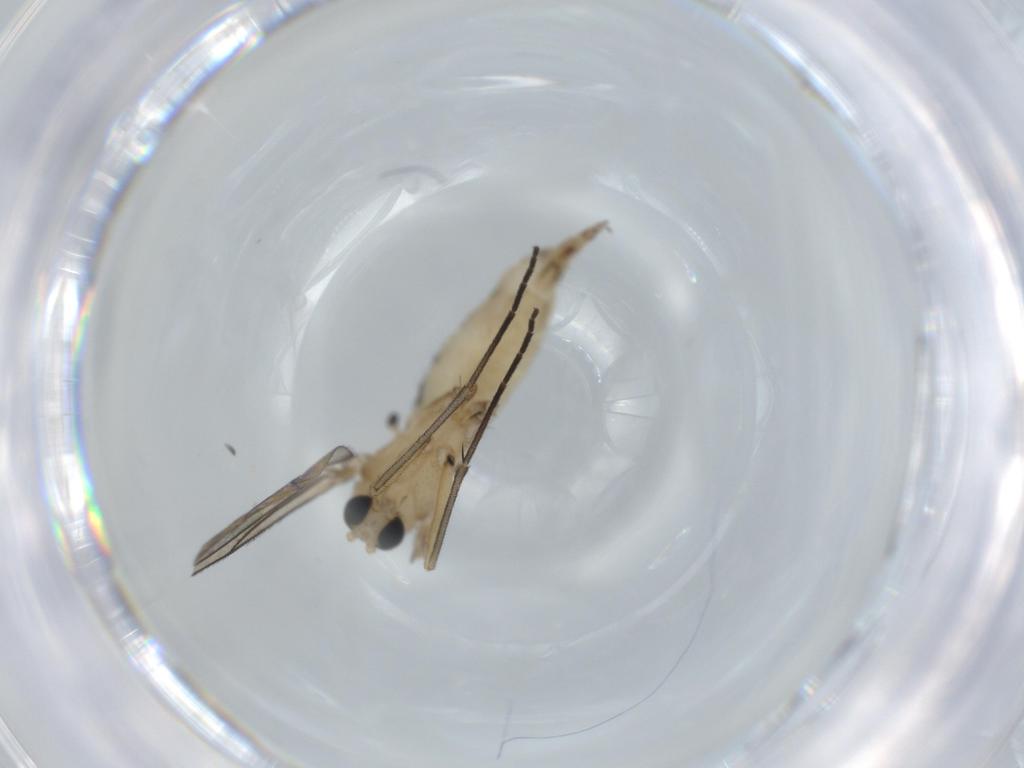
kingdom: Animalia
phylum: Arthropoda
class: Insecta
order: Diptera
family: Sciaridae
